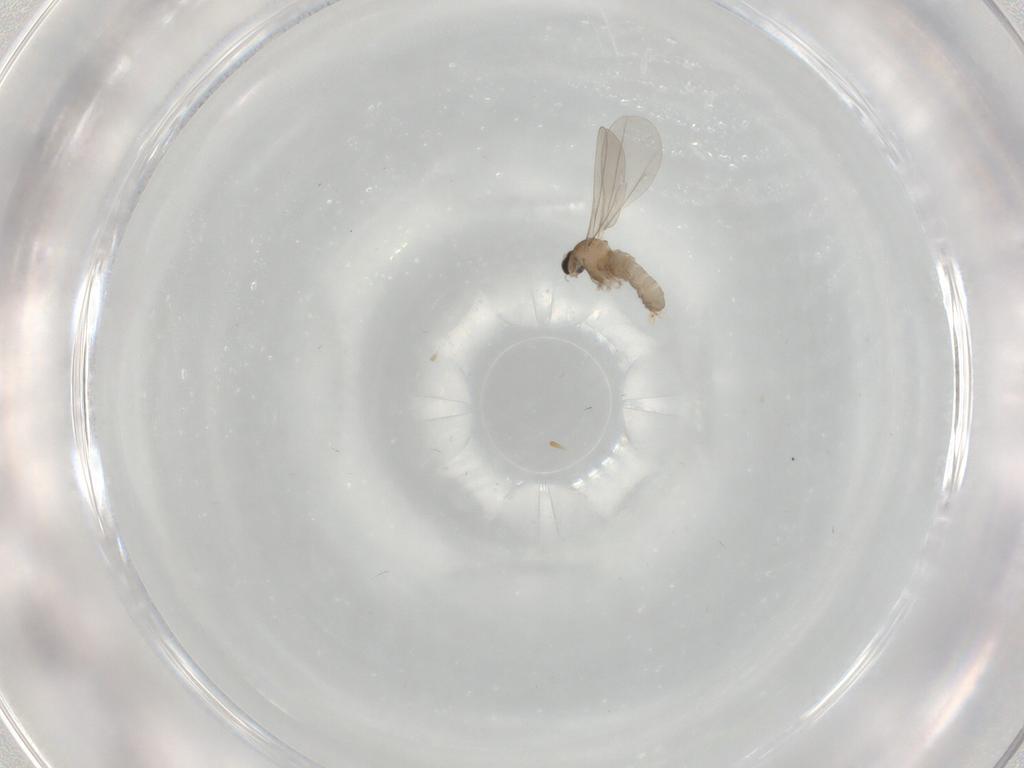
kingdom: Animalia
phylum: Arthropoda
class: Insecta
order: Diptera
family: Cecidomyiidae
